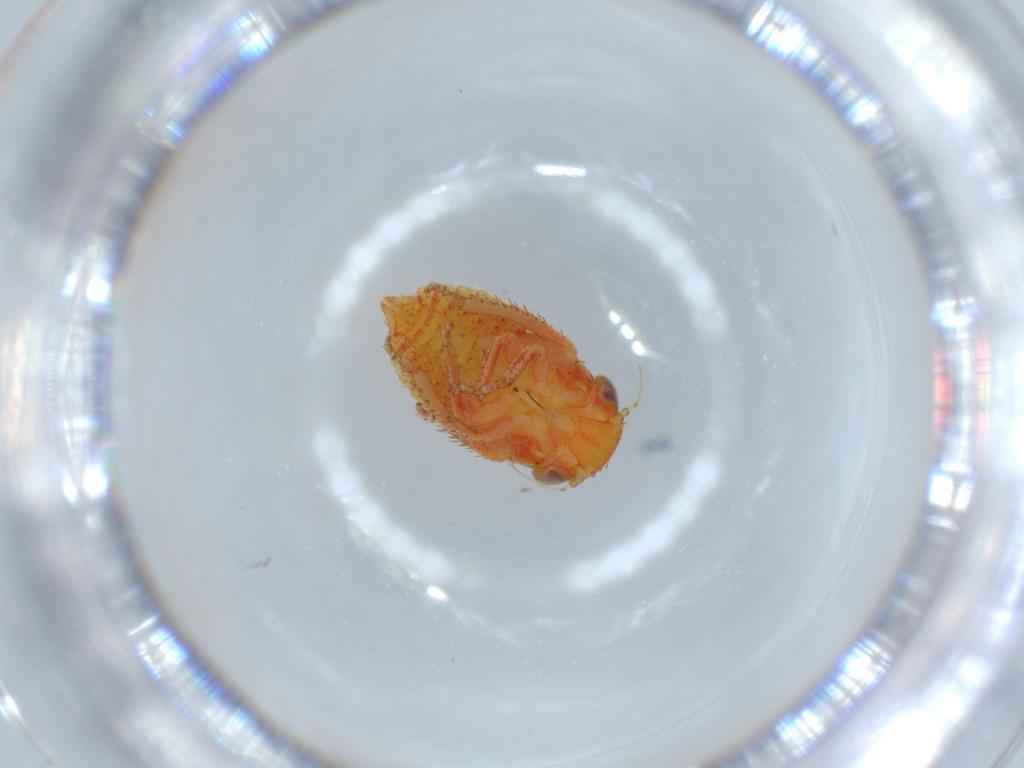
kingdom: Animalia
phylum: Arthropoda
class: Insecta
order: Hemiptera
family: Cicadellidae
